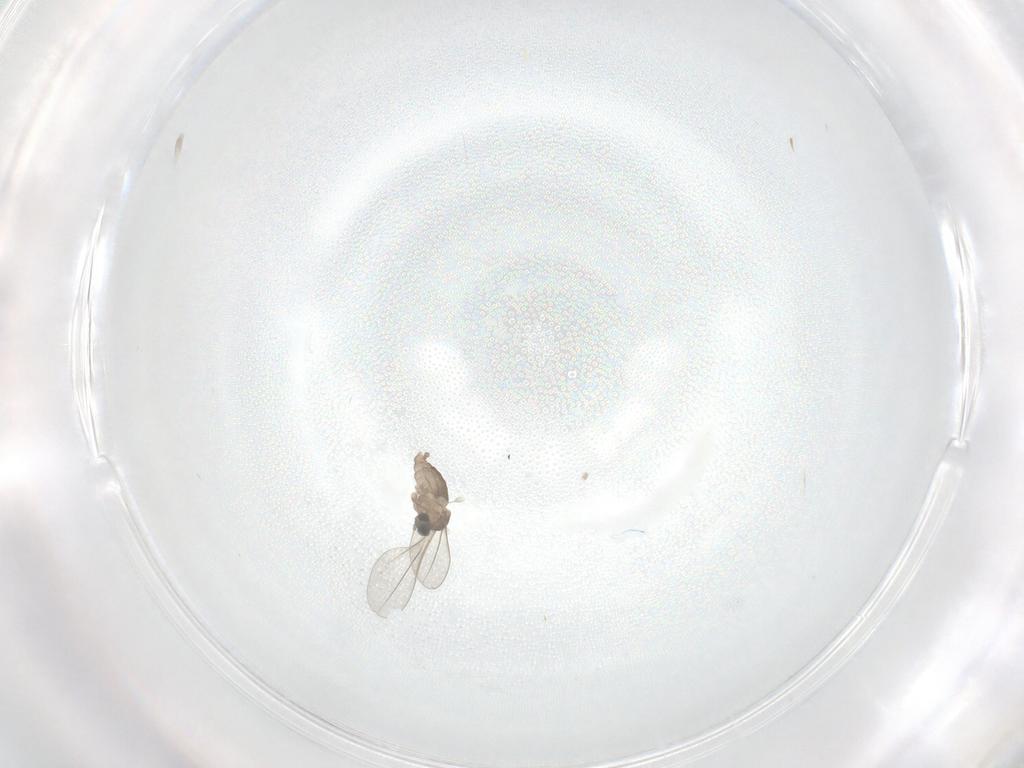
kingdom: Animalia
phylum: Arthropoda
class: Insecta
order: Diptera
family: Cecidomyiidae
